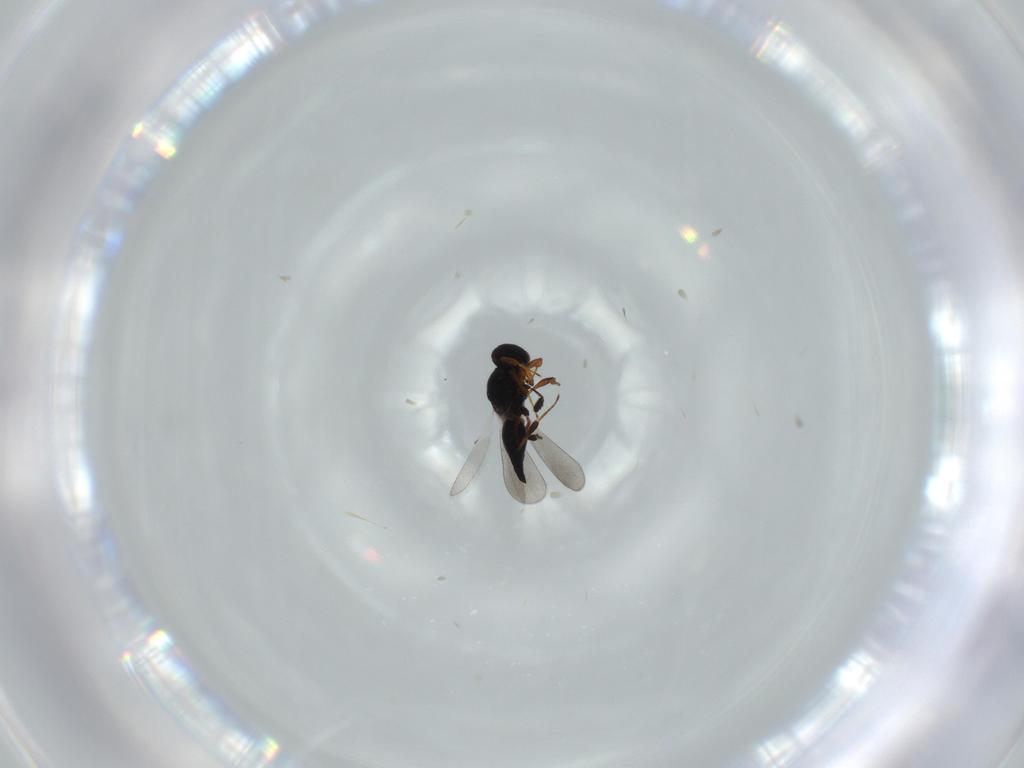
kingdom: Animalia
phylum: Arthropoda
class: Insecta
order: Hymenoptera
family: Platygastridae
